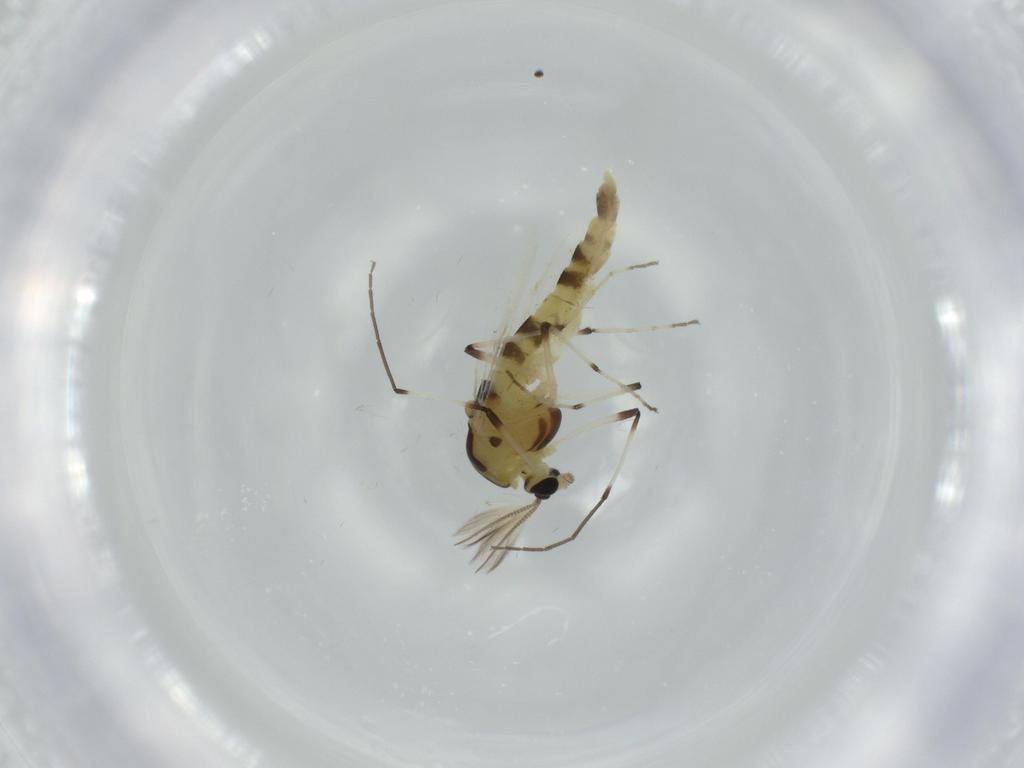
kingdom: Animalia
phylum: Arthropoda
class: Insecta
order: Diptera
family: Chironomidae
